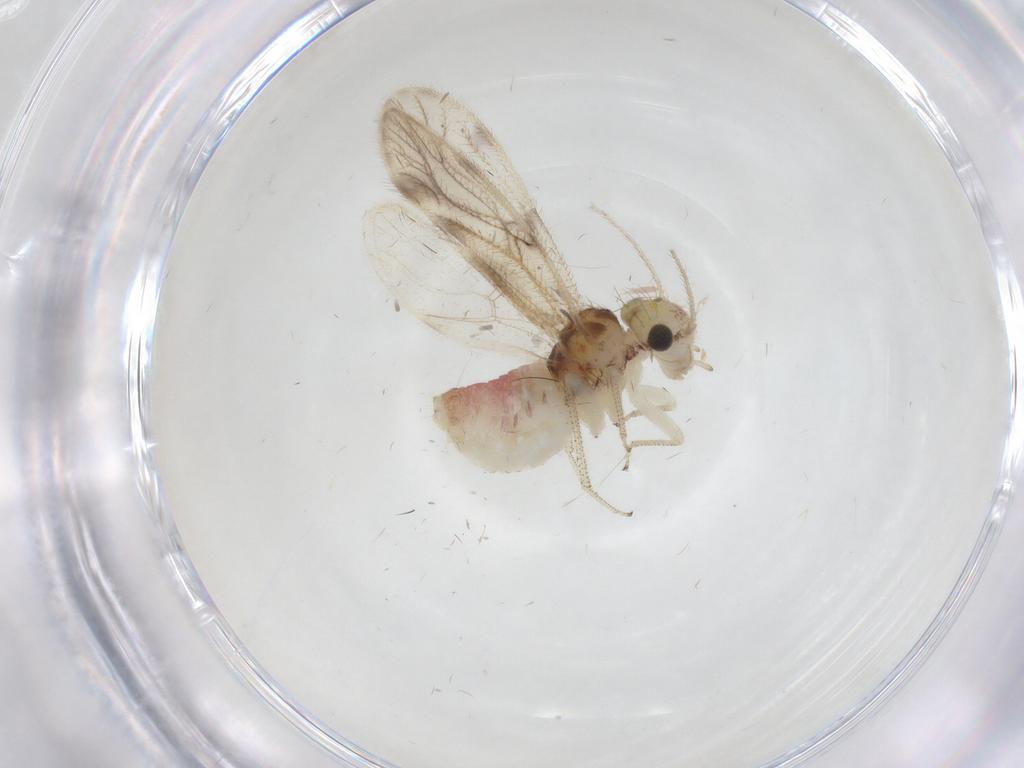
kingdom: Animalia
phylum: Arthropoda
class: Insecta
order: Psocodea
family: Pseudocaeciliidae
